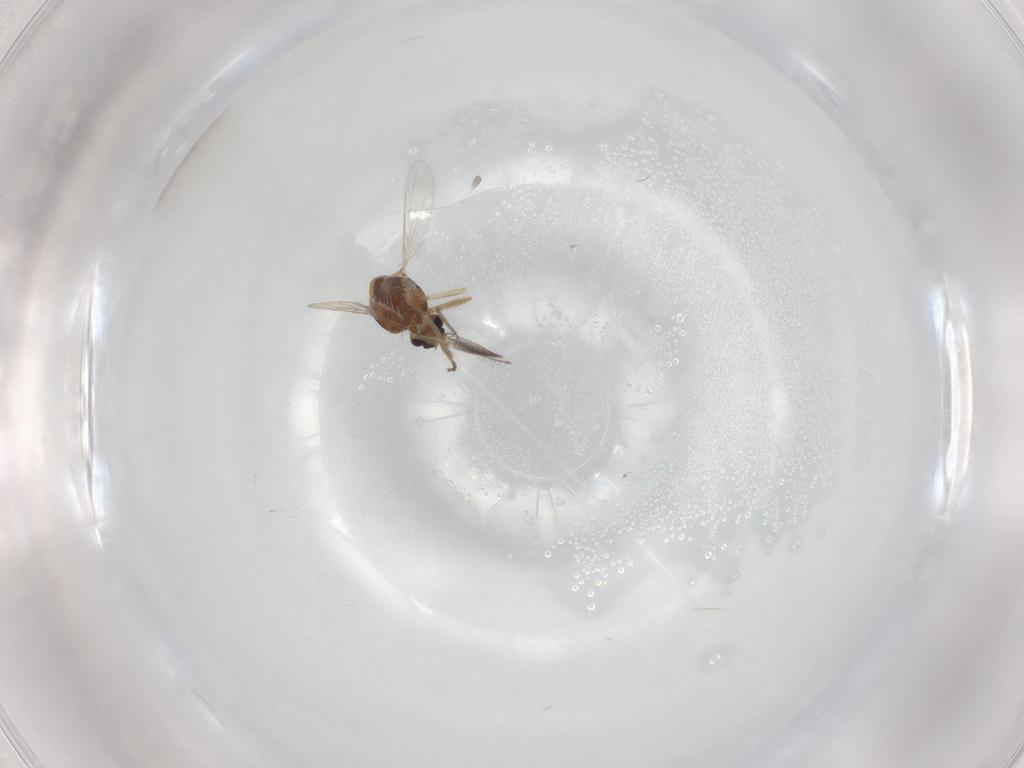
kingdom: Animalia
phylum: Arthropoda
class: Insecta
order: Diptera
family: Ceratopogonidae
